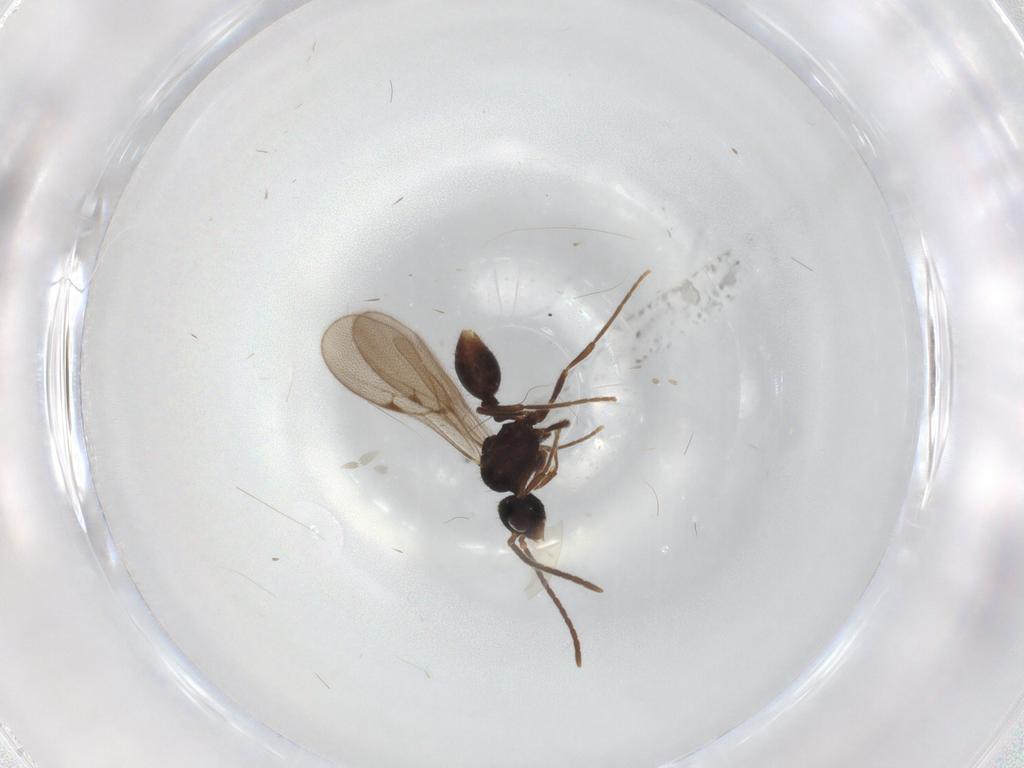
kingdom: Animalia
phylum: Arthropoda
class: Insecta
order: Hymenoptera
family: Formicidae
